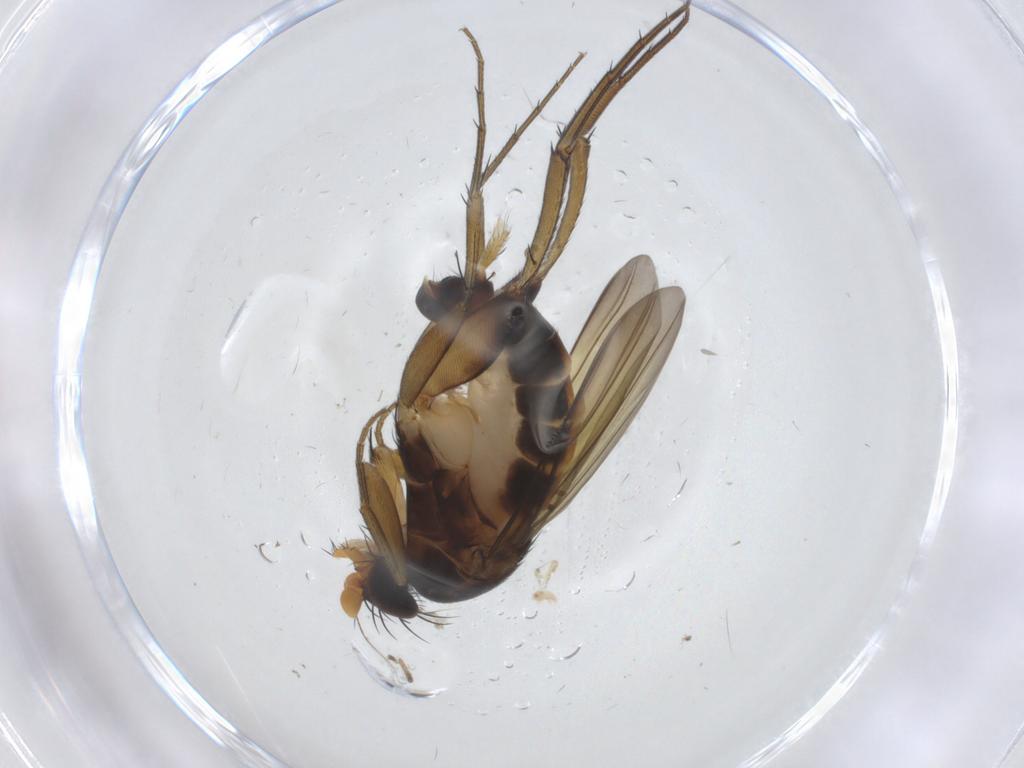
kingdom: Animalia
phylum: Arthropoda
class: Insecta
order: Diptera
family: Phoridae
